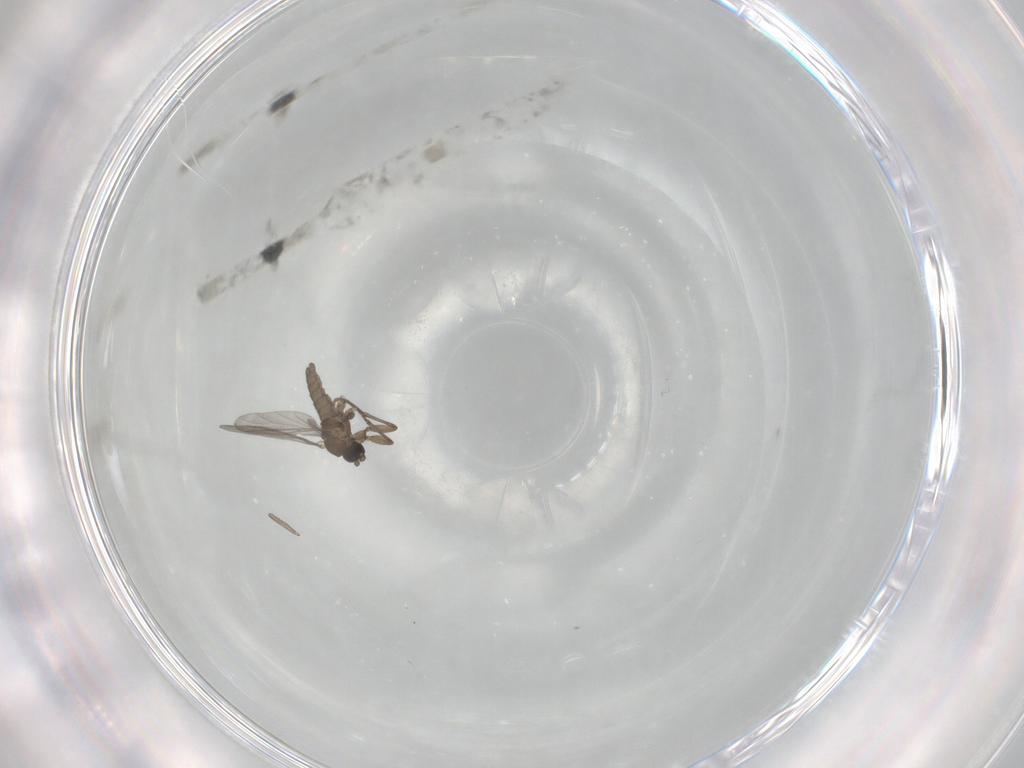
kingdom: Animalia
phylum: Arthropoda
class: Insecta
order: Diptera
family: Sciaridae
